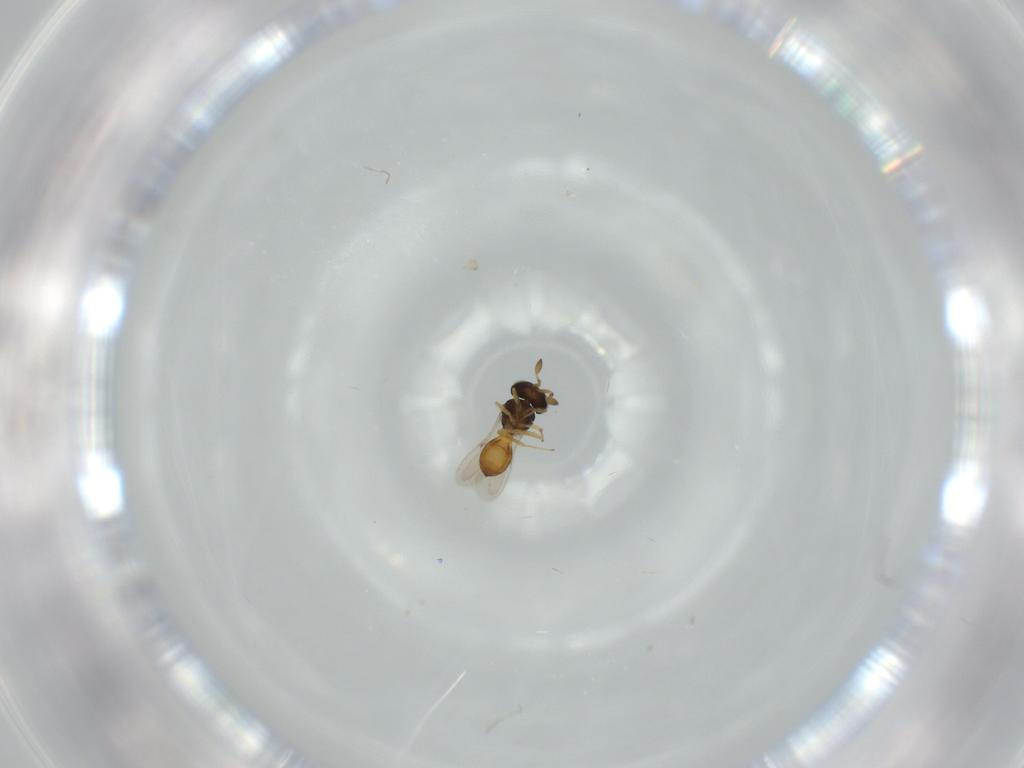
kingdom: Animalia
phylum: Arthropoda
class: Insecta
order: Hymenoptera
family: Scelionidae
